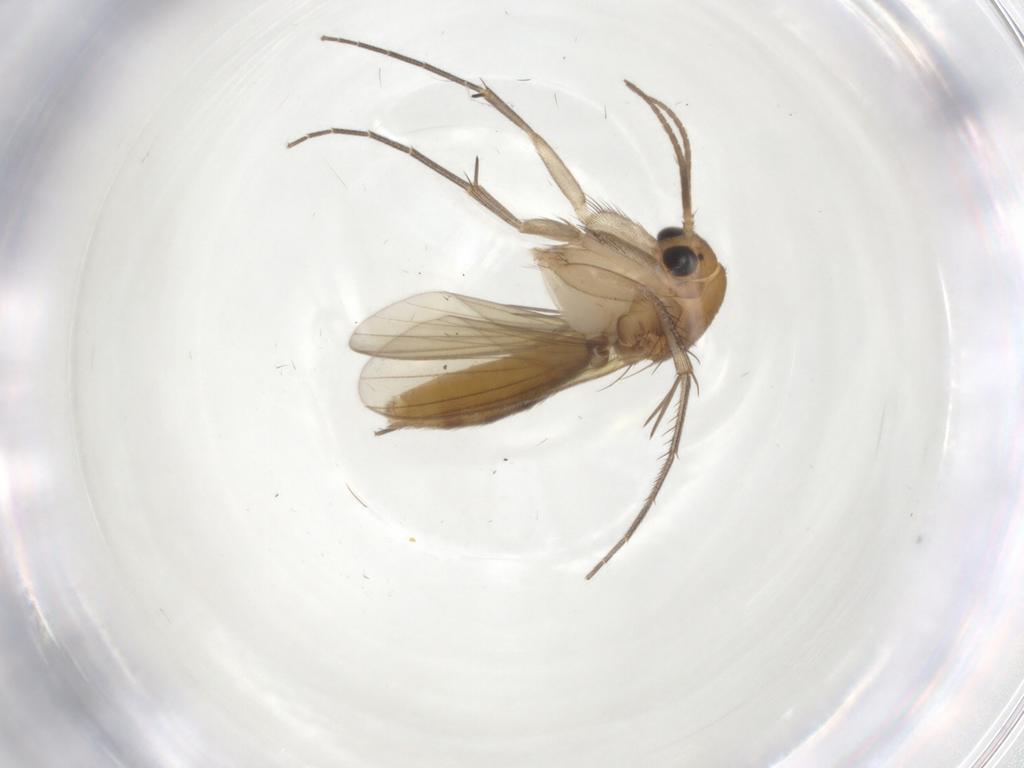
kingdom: Animalia
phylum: Arthropoda
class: Insecta
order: Diptera
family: Mycetophilidae
